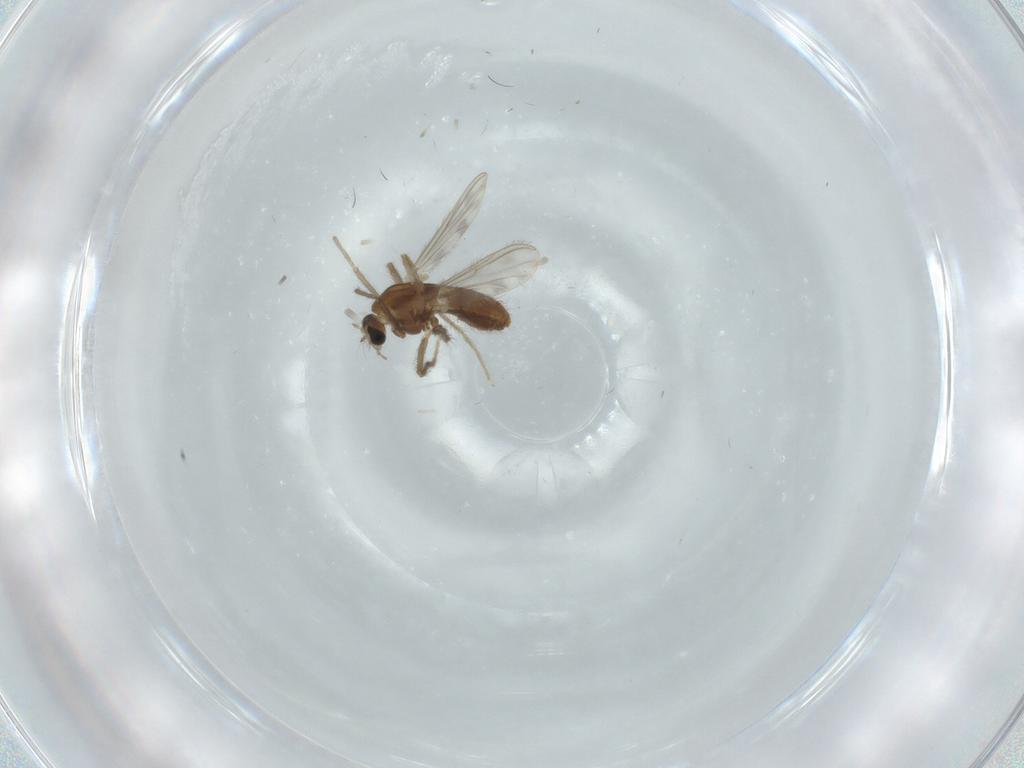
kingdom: Animalia
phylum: Arthropoda
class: Insecta
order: Diptera
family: Chironomidae
